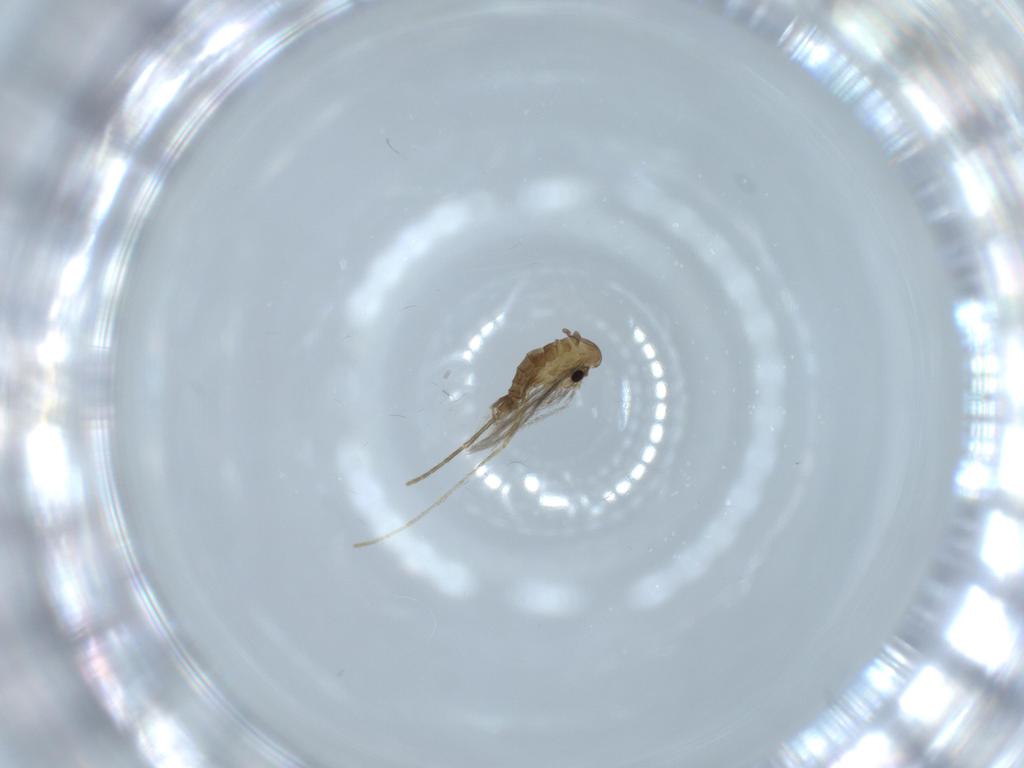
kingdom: Animalia
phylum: Arthropoda
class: Insecta
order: Diptera
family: Psychodidae
